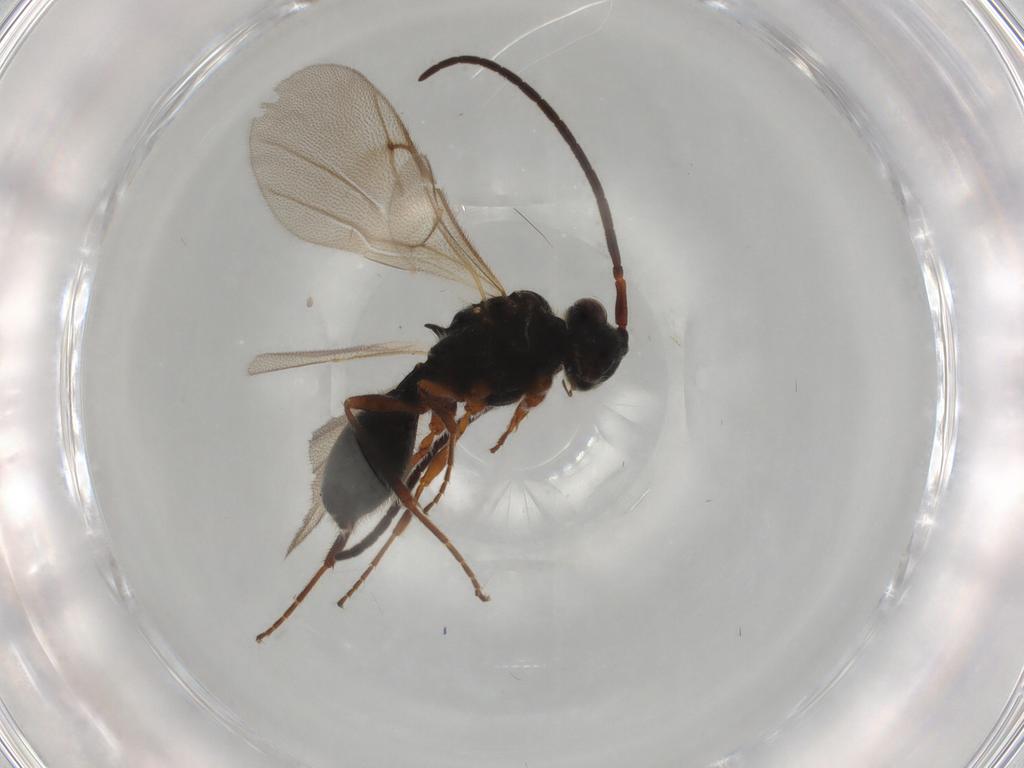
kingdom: Animalia
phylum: Arthropoda
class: Insecta
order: Hymenoptera
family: Diapriidae
